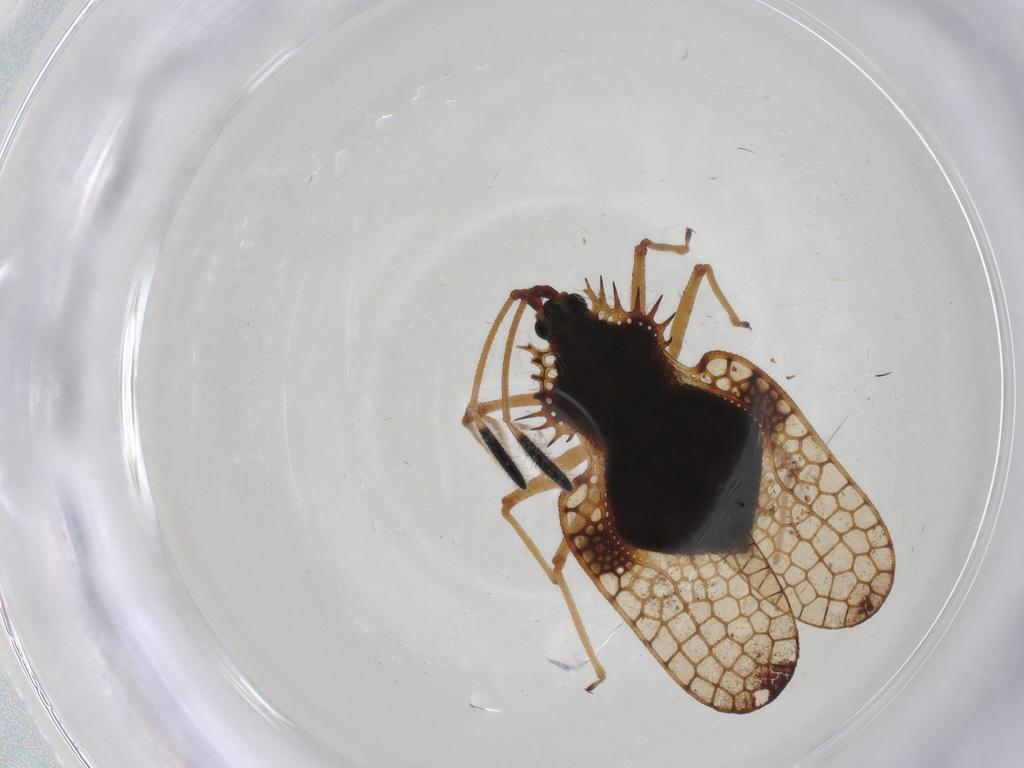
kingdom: Animalia
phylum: Arthropoda
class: Insecta
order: Hemiptera
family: Tingidae
